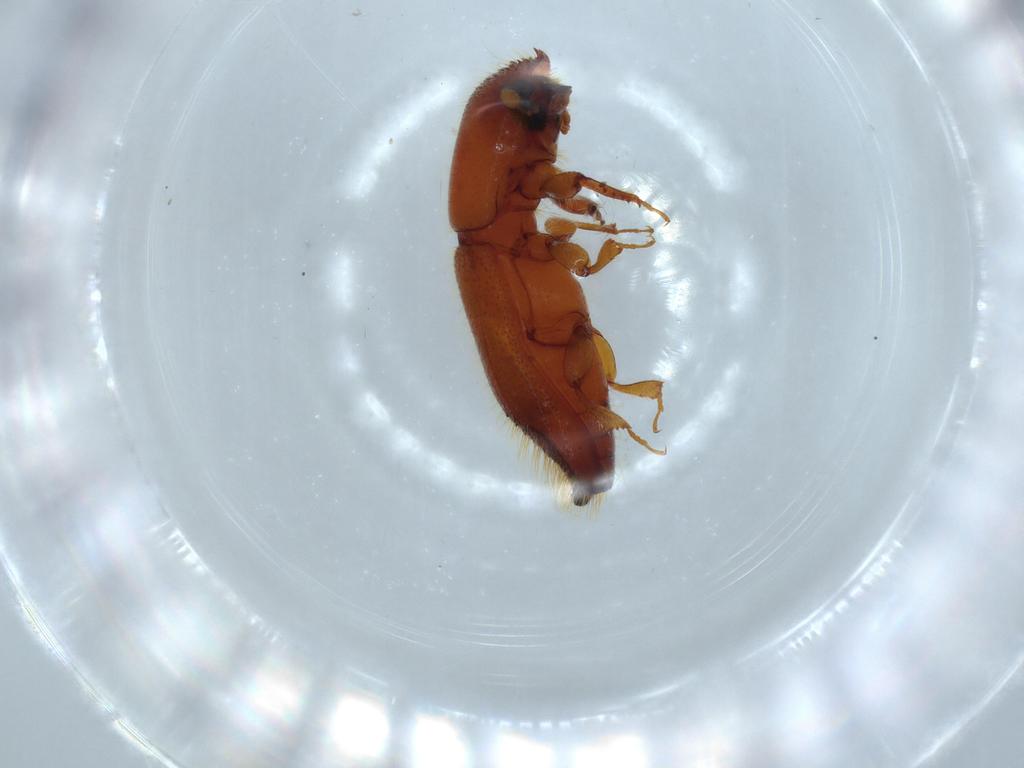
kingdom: Animalia
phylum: Arthropoda
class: Insecta
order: Coleoptera
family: Curculionidae
